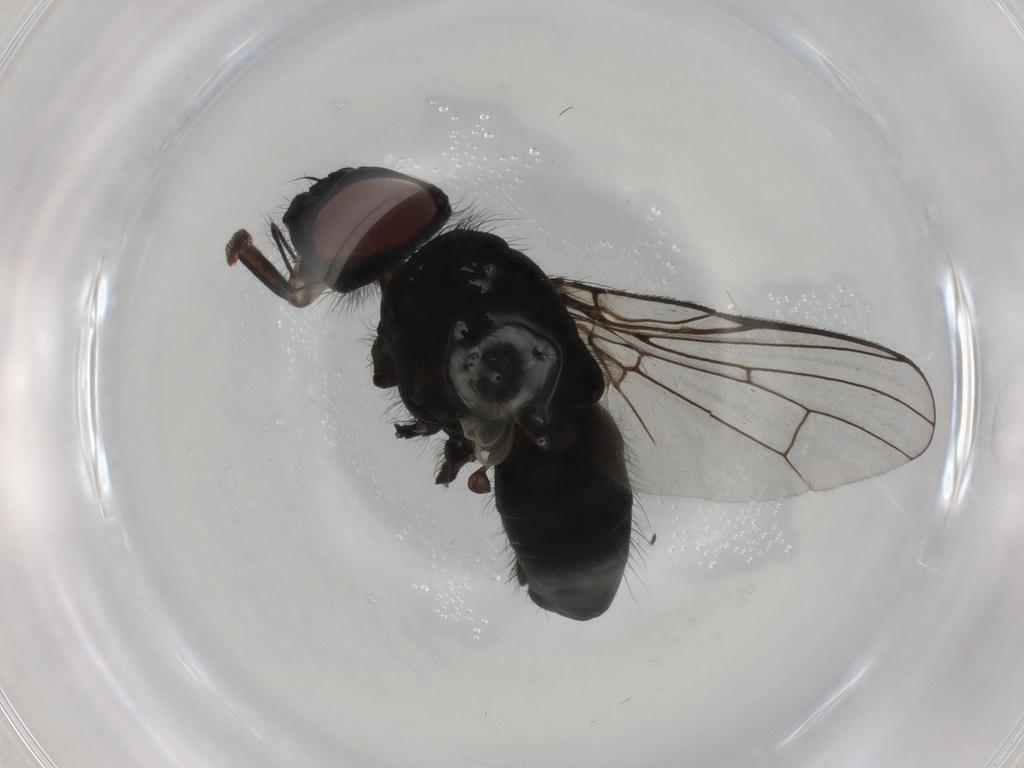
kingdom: Animalia
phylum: Arthropoda
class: Insecta
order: Diptera
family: Muscidae
